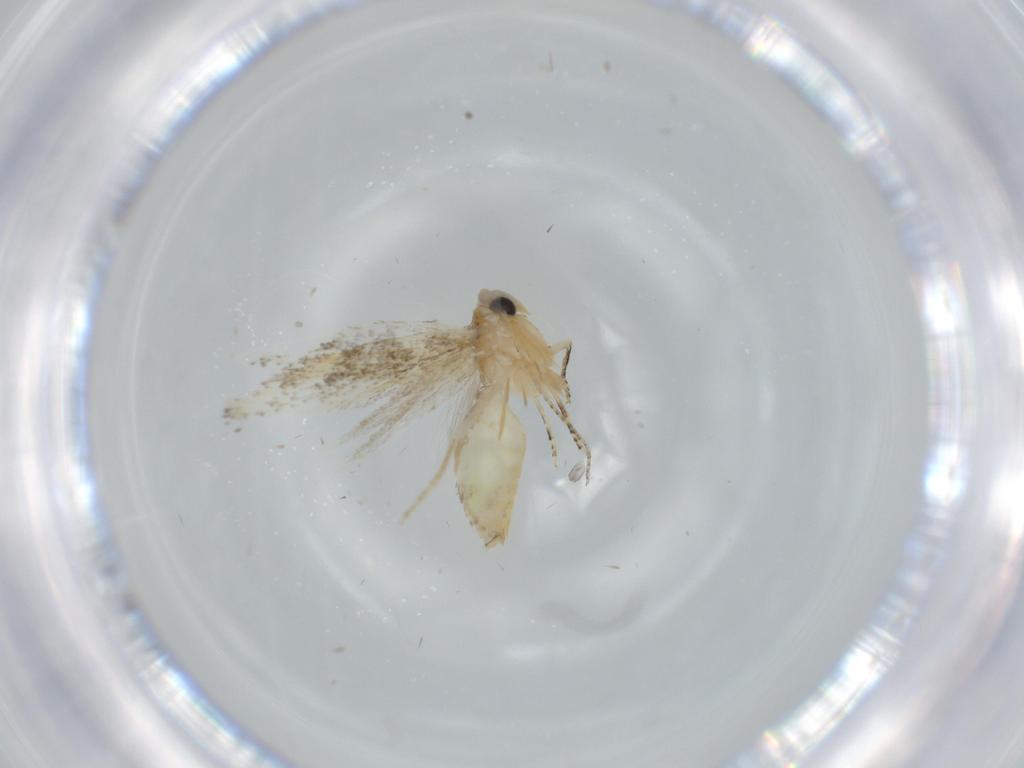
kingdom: Animalia
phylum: Arthropoda
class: Insecta
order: Lepidoptera
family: Bucculatricidae
